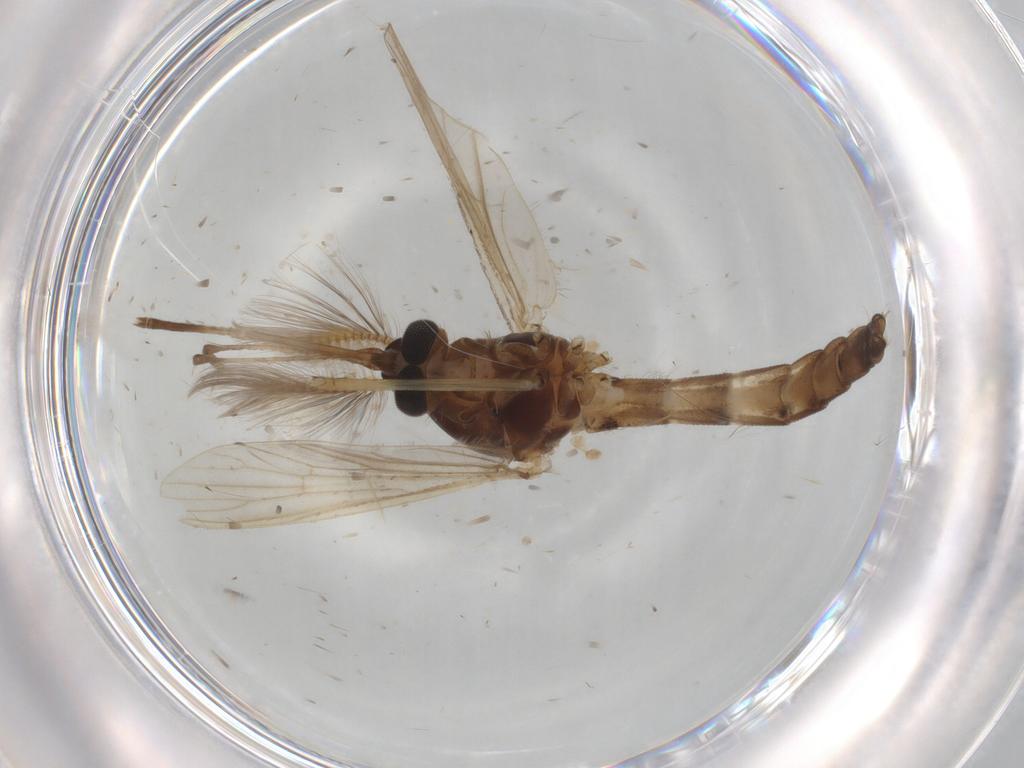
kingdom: Animalia
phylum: Arthropoda
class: Insecta
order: Diptera
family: Culicidae
